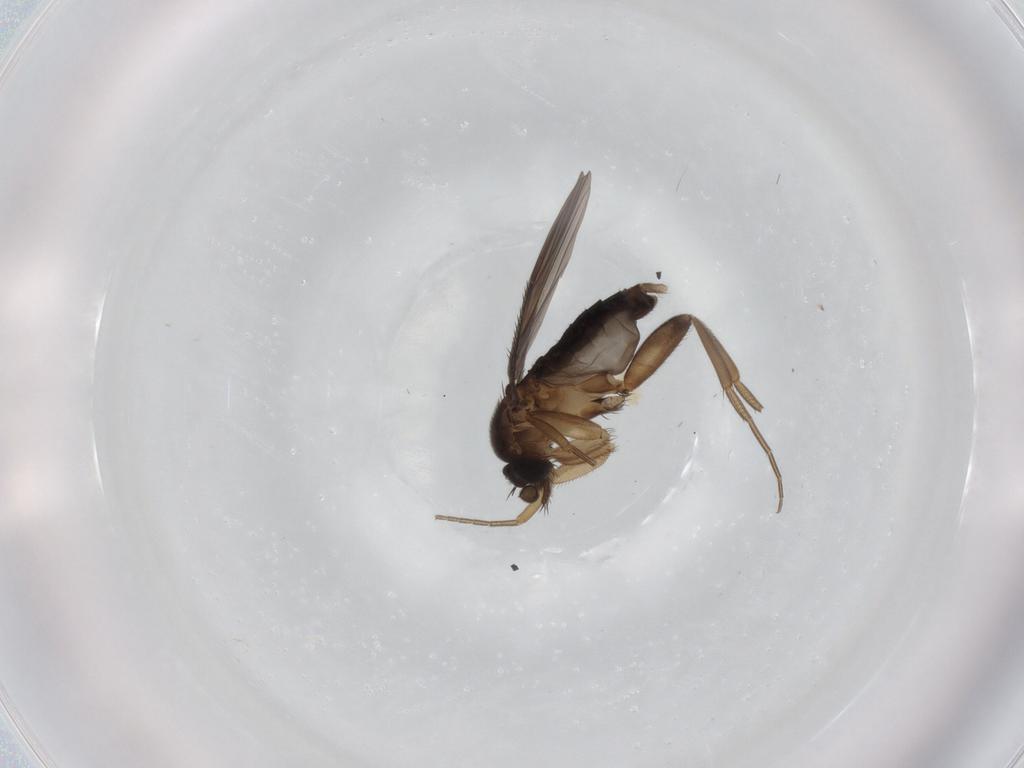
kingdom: Animalia
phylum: Arthropoda
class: Insecta
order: Diptera
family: Phoridae
